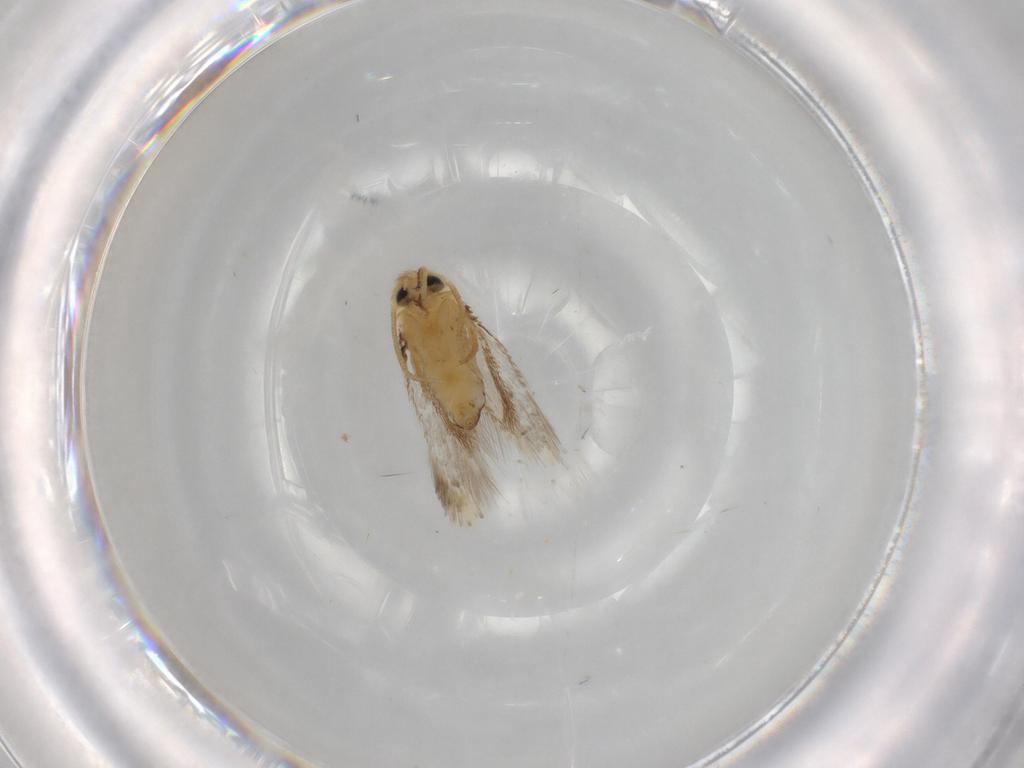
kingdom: Animalia
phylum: Arthropoda
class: Insecta
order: Lepidoptera
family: Nepticulidae
